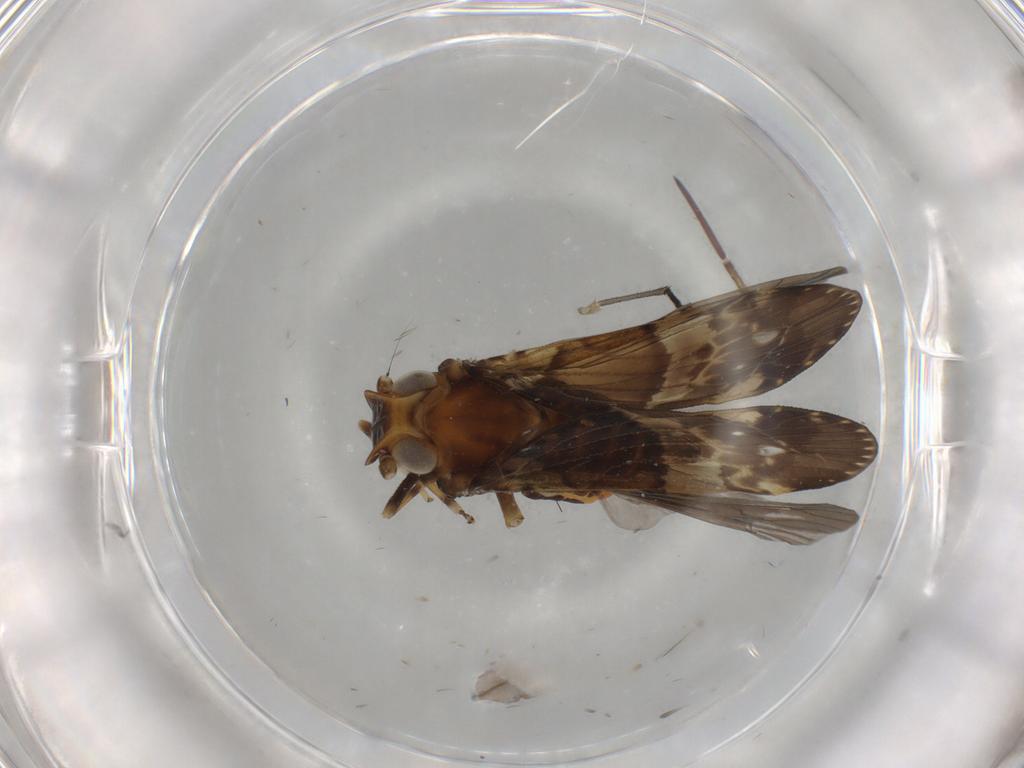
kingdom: Animalia
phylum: Arthropoda
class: Insecta
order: Hemiptera
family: Cixiidae
